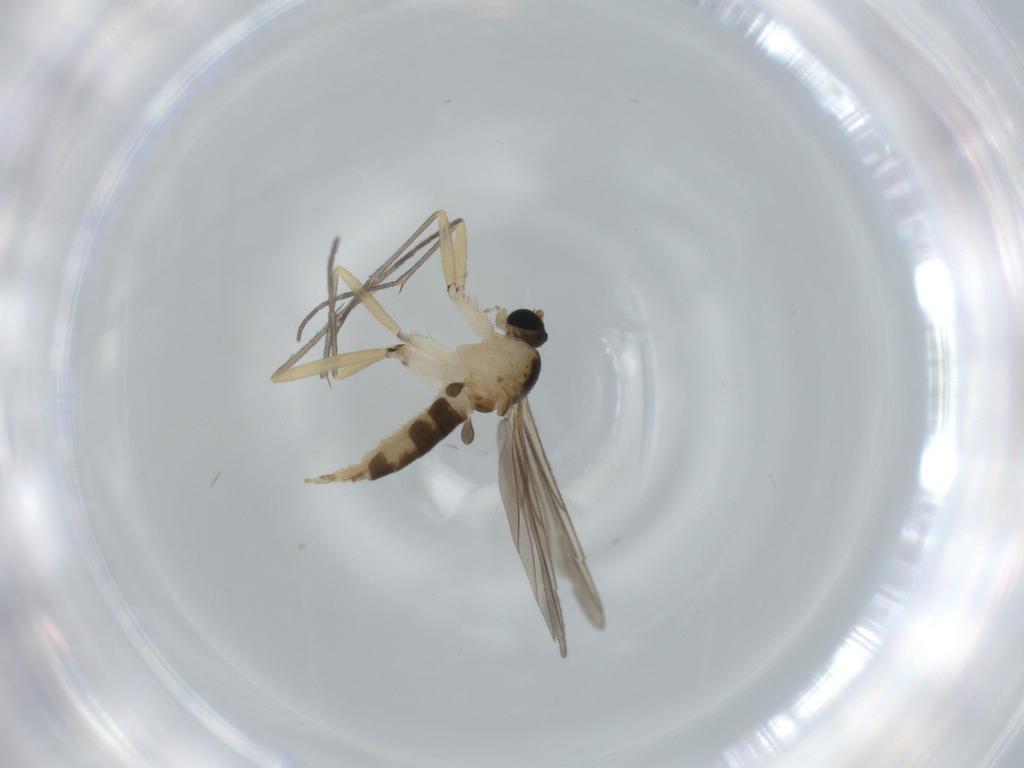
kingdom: Animalia
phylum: Arthropoda
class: Insecta
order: Diptera
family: Sciaridae
